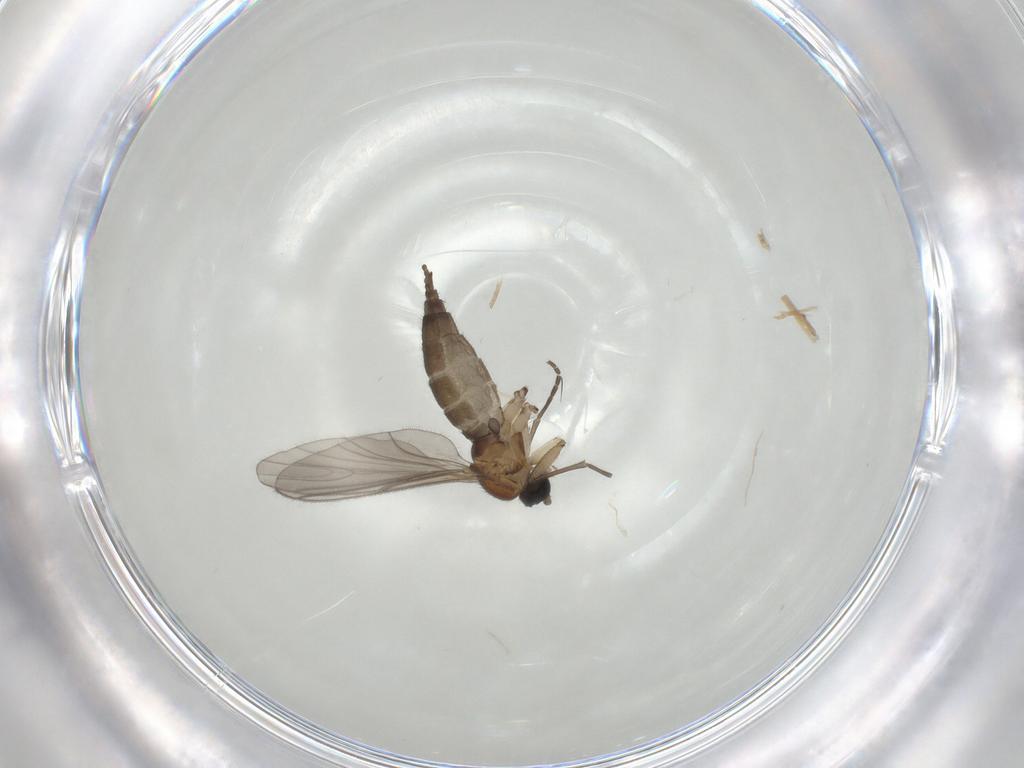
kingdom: Animalia
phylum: Arthropoda
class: Insecta
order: Diptera
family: Sciaridae
